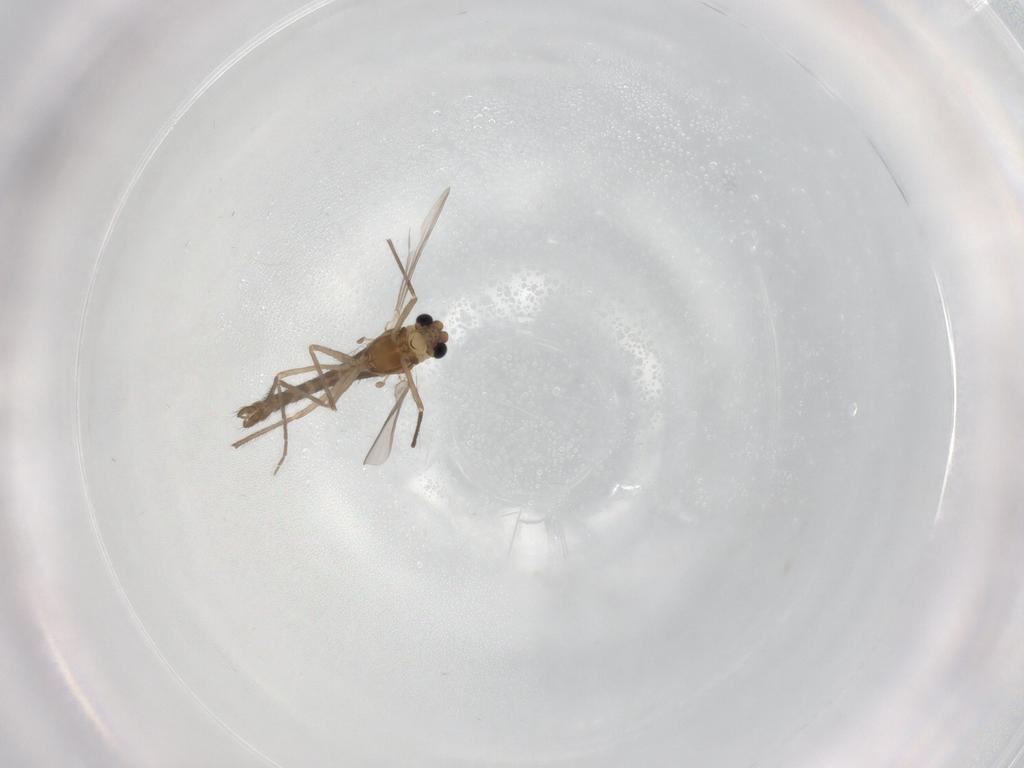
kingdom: Animalia
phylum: Arthropoda
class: Insecta
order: Diptera
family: Chironomidae
